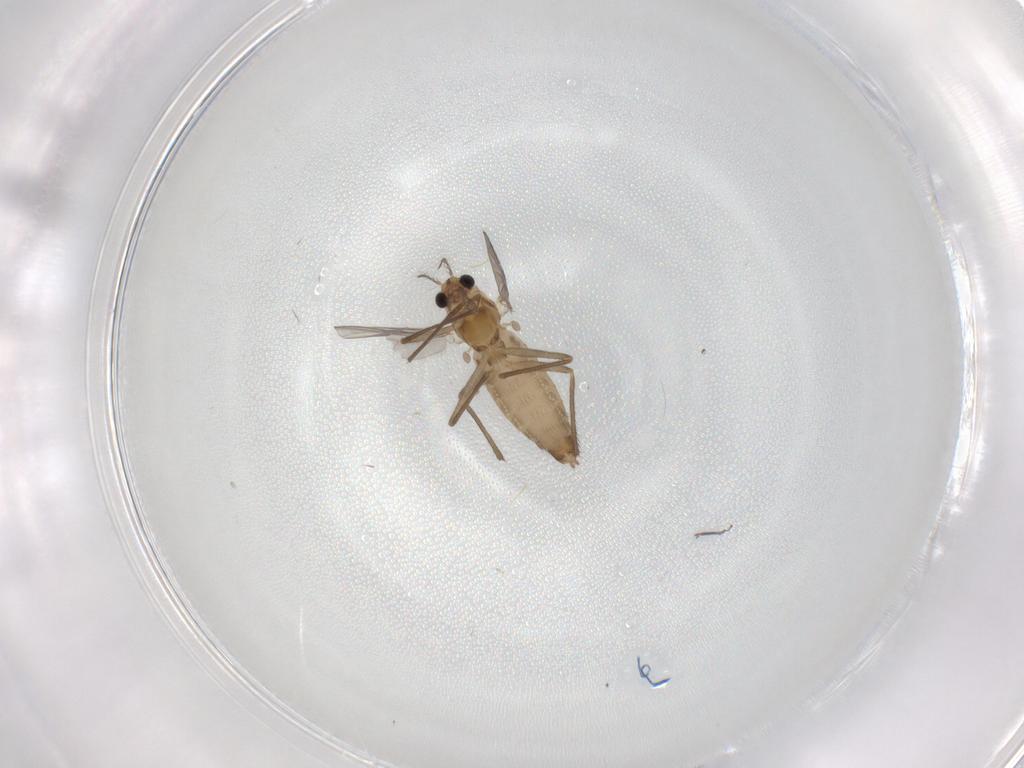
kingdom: Animalia
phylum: Arthropoda
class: Insecta
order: Diptera
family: Chironomidae
